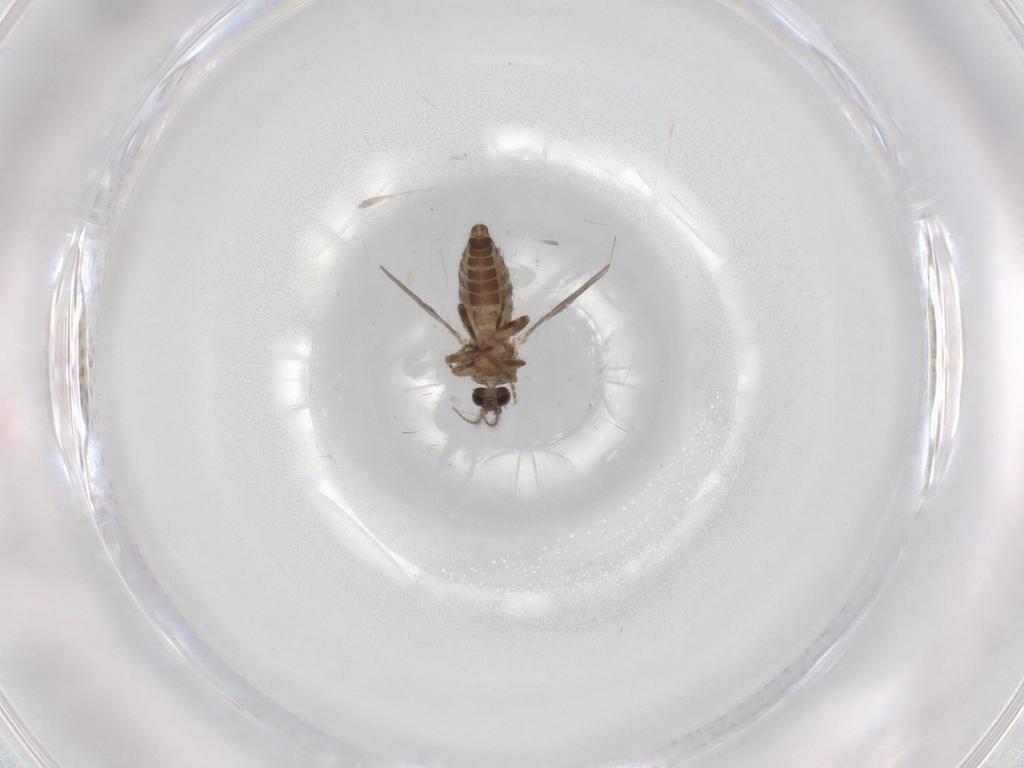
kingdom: Animalia
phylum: Arthropoda
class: Insecta
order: Diptera
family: Ceratopogonidae
